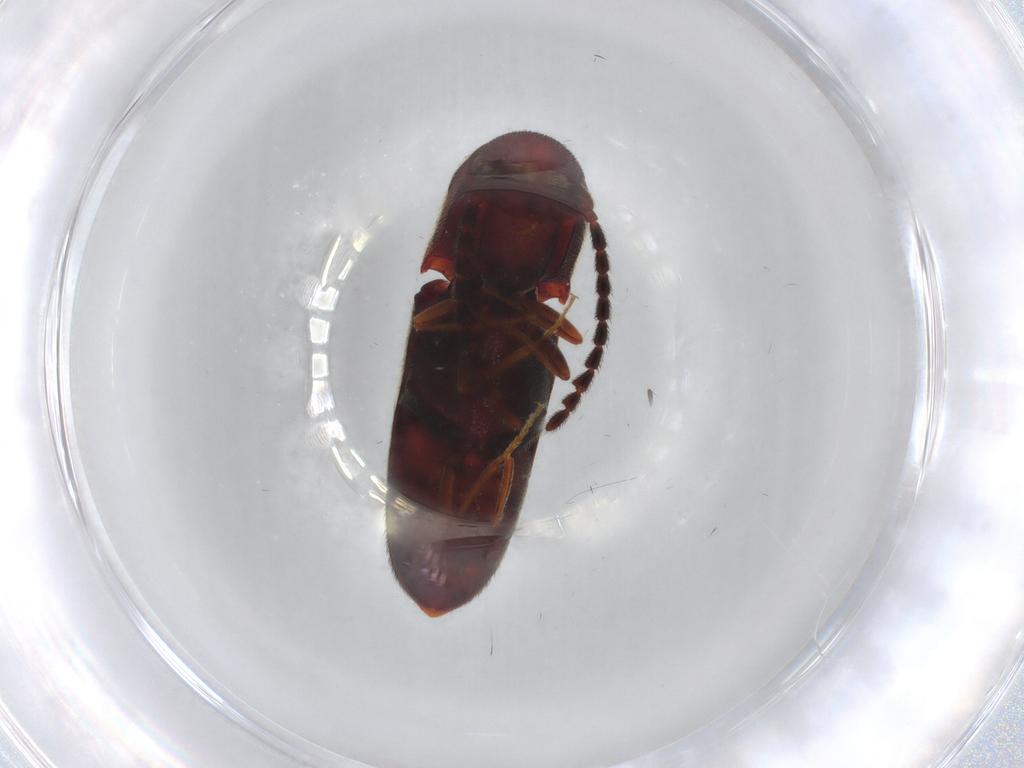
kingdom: Animalia
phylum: Arthropoda
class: Insecta
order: Coleoptera
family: Eucnemidae
